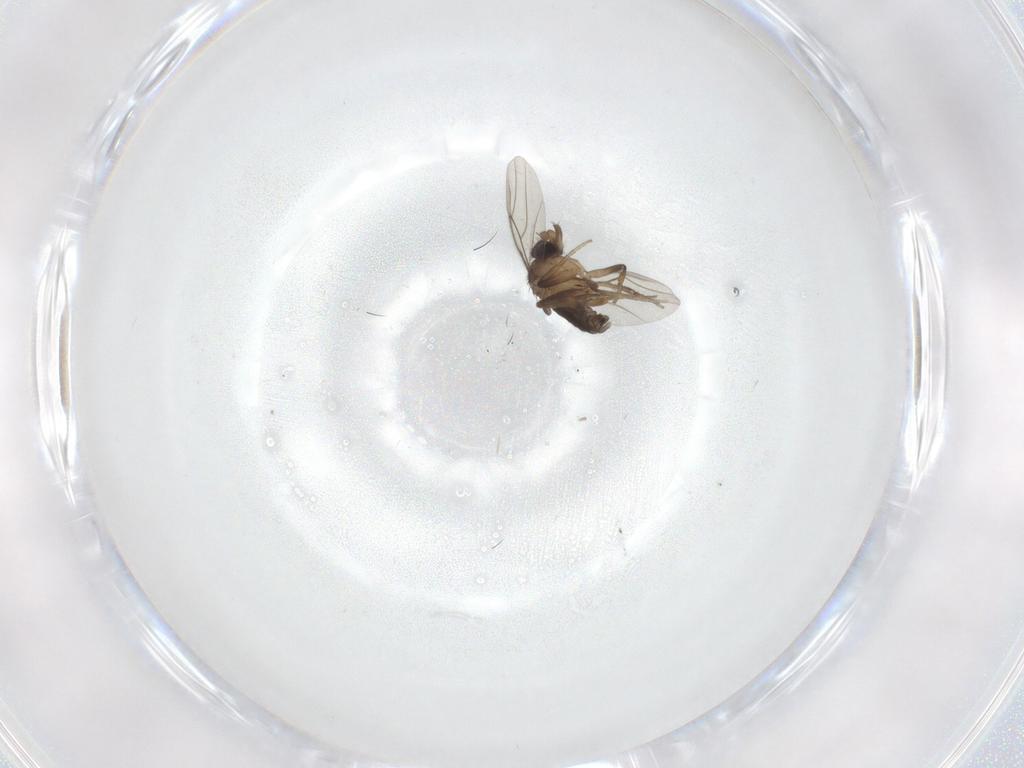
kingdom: Animalia
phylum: Arthropoda
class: Insecta
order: Diptera
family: Phoridae
